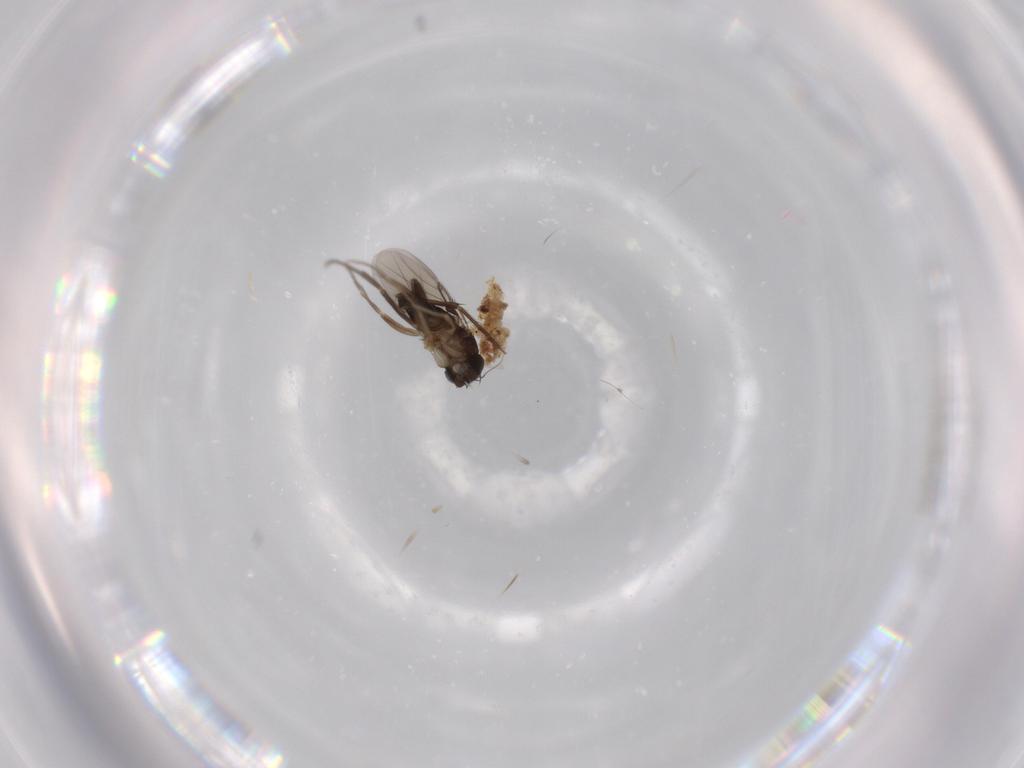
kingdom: Animalia
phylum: Arthropoda
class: Insecta
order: Diptera
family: Phoridae
